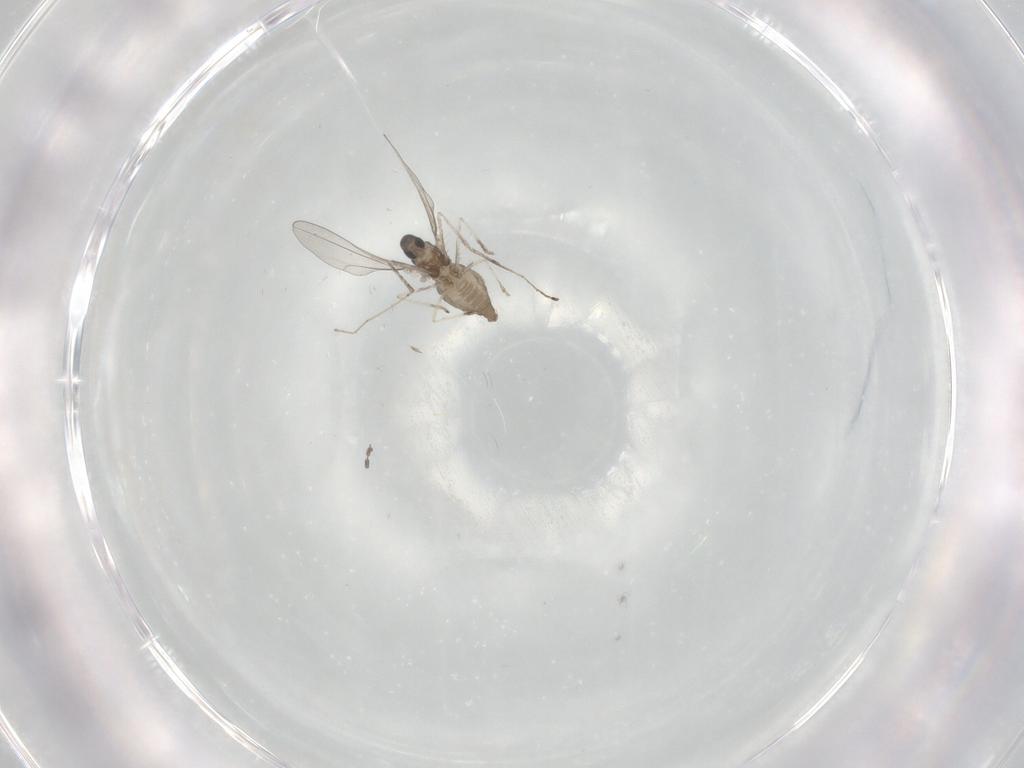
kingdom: Animalia
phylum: Arthropoda
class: Insecta
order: Diptera
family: Cecidomyiidae
